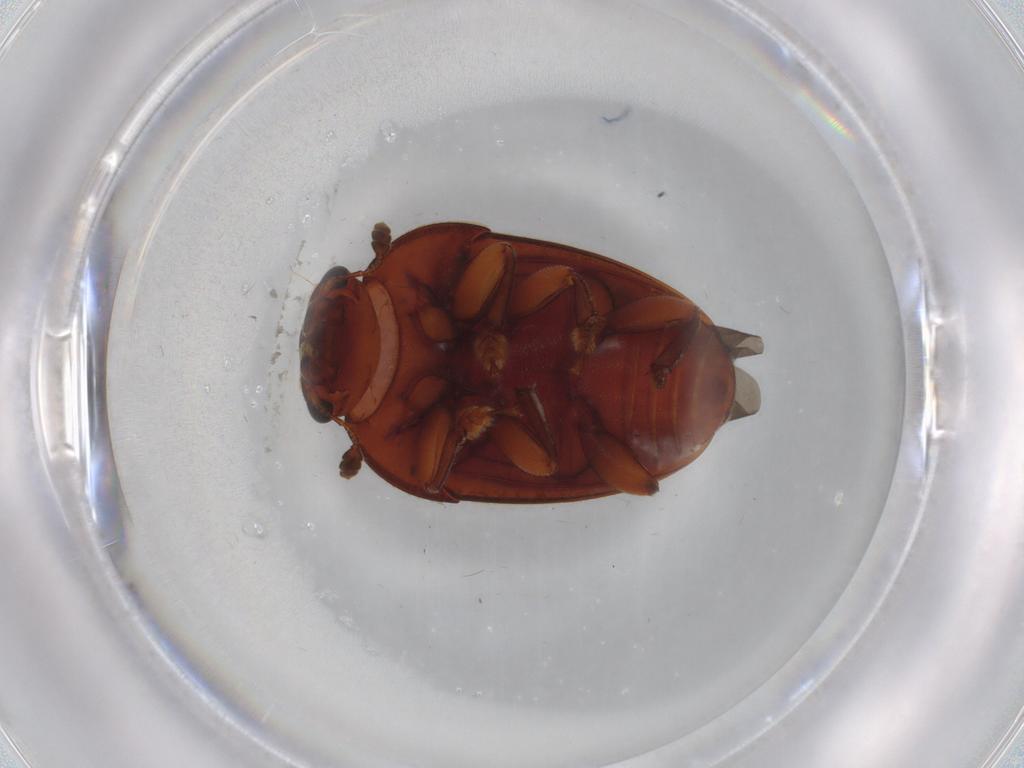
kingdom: Animalia
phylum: Arthropoda
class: Insecta
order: Coleoptera
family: Nitidulidae
